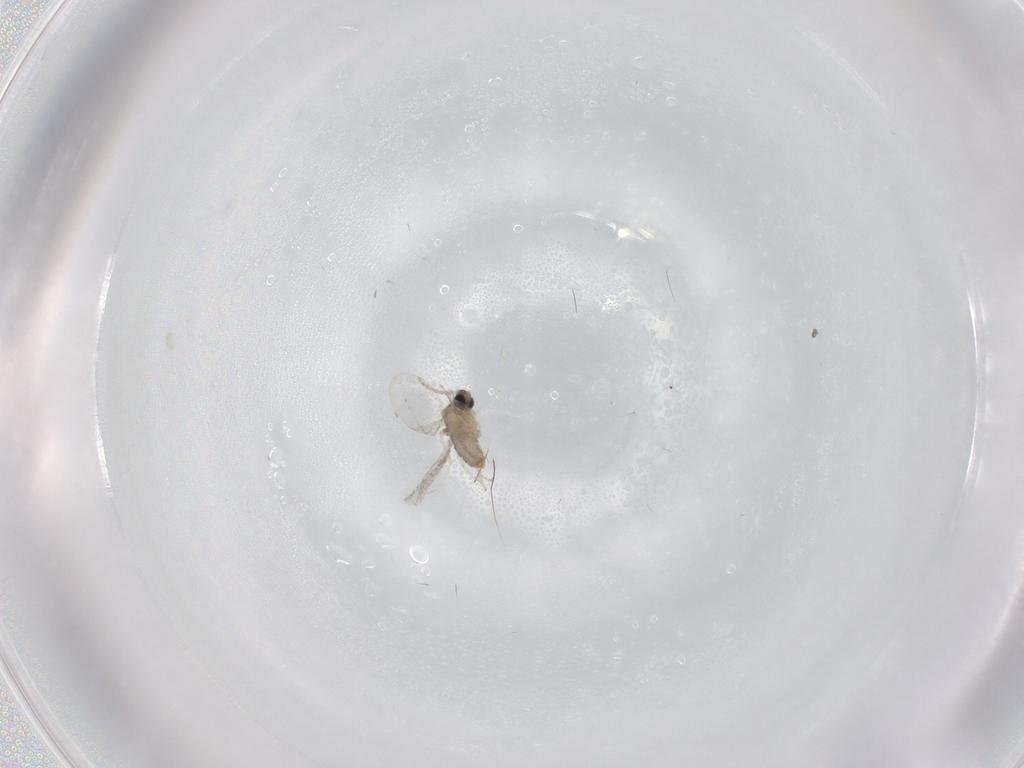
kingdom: Animalia
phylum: Arthropoda
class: Insecta
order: Diptera
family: Cecidomyiidae
